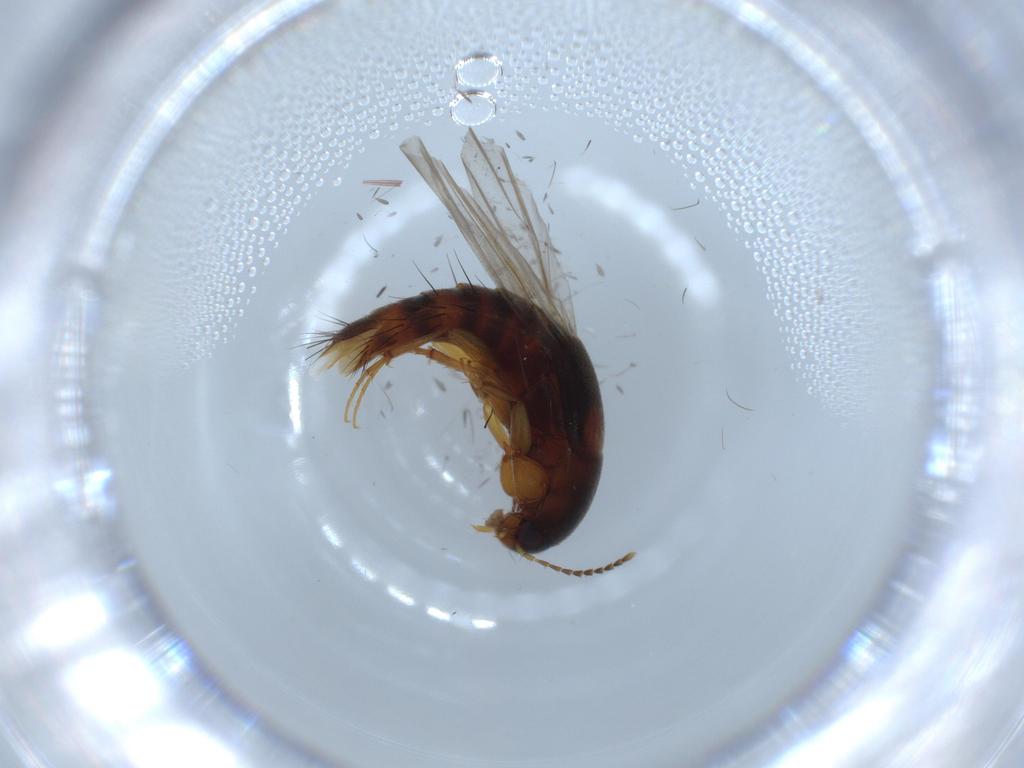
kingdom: Animalia
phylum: Arthropoda
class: Insecta
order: Coleoptera
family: Staphylinidae
